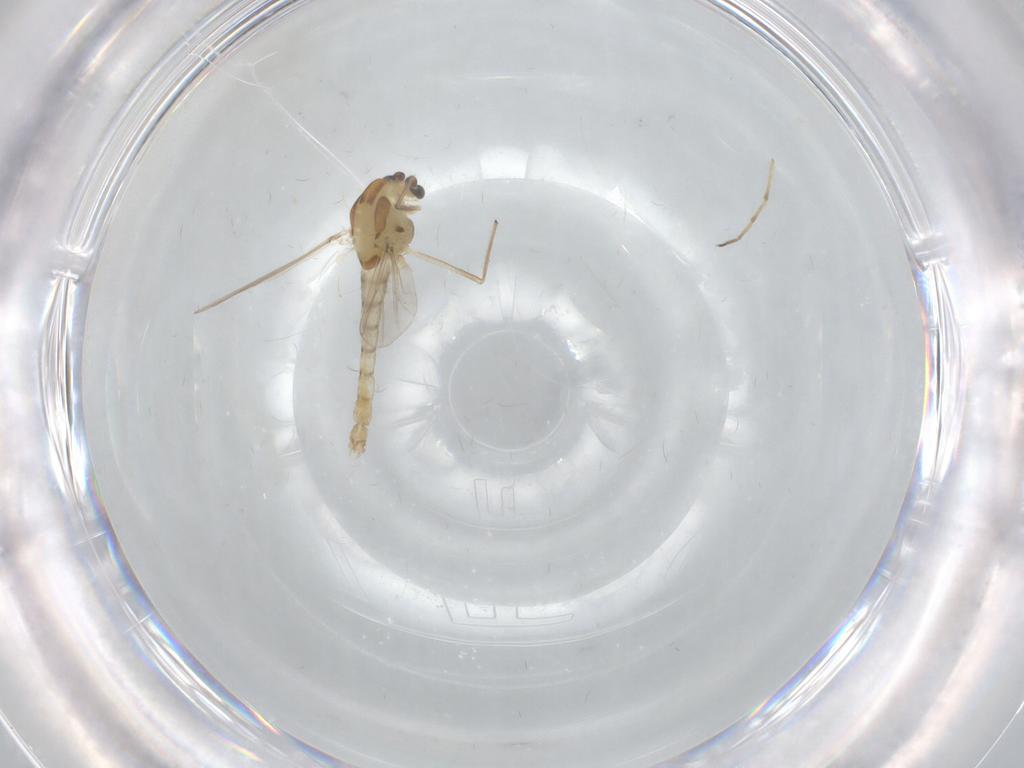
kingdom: Animalia
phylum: Arthropoda
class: Insecta
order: Diptera
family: Chironomidae
